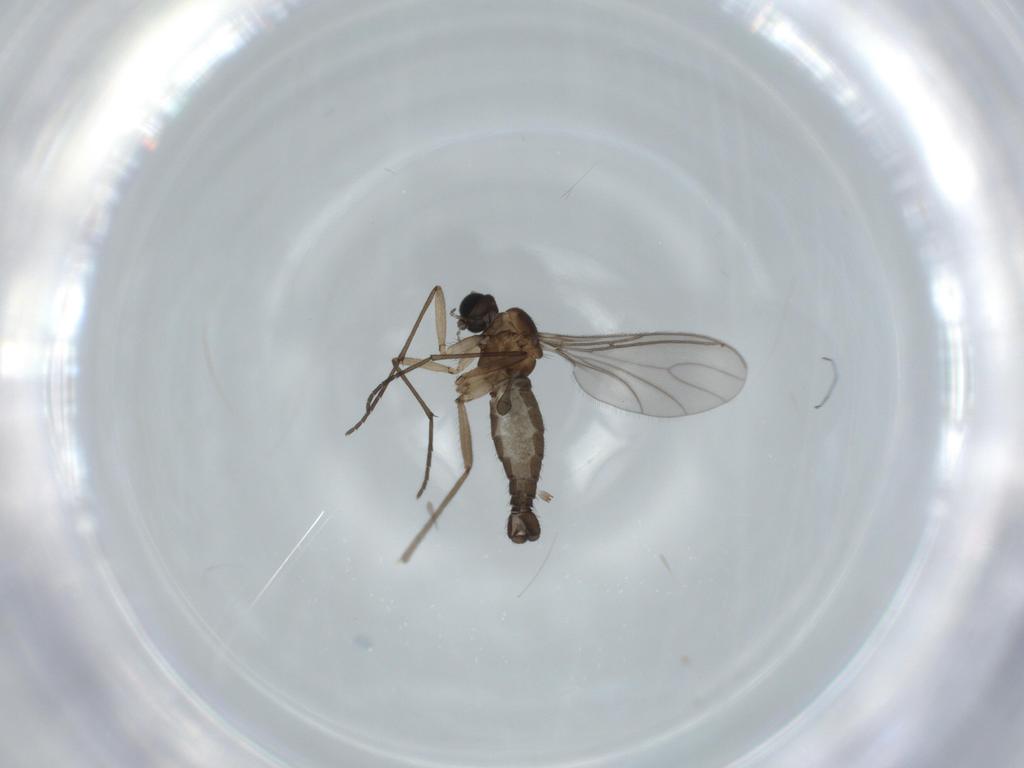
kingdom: Animalia
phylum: Arthropoda
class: Insecta
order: Diptera
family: Sciaridae
